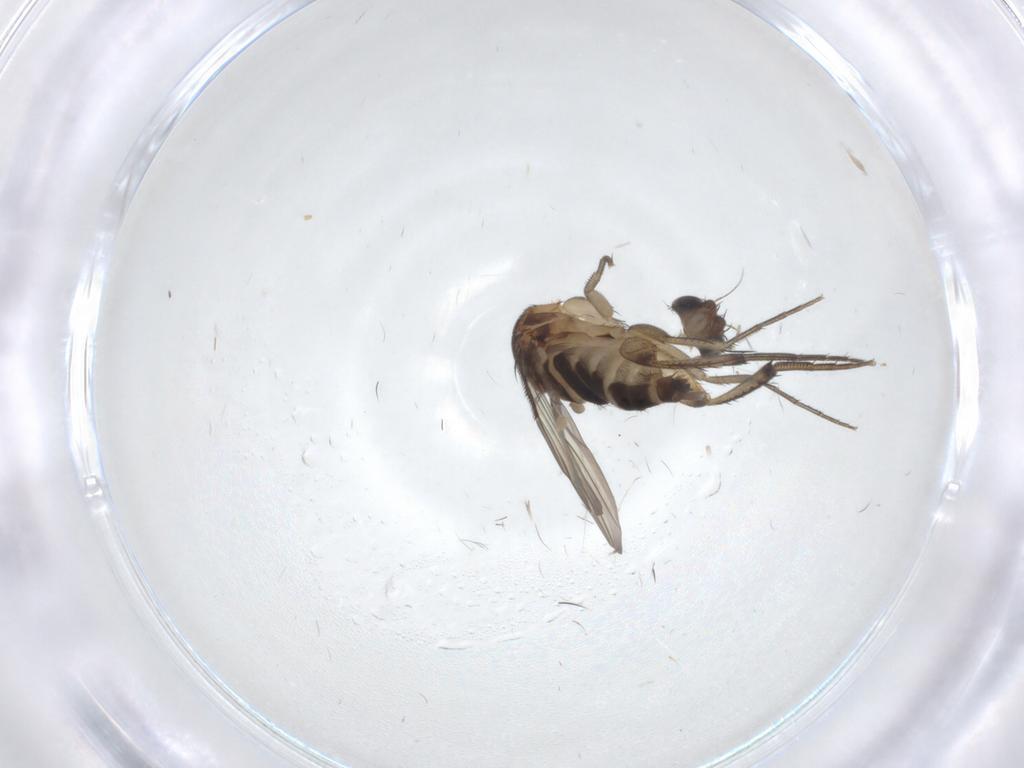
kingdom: Animalia
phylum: Arthropoda
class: Insecta
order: Diptera
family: Phoridae
